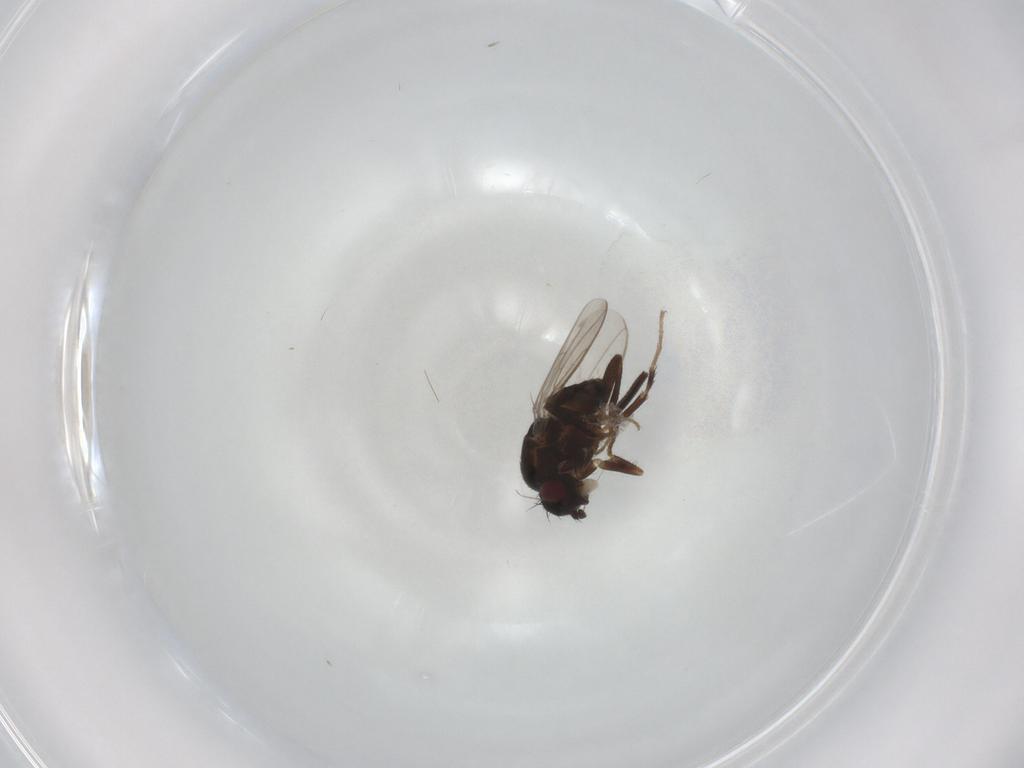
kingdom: Animalia
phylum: Arthropoda
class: Insecta
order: Diptera
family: Sphaeroceridae
